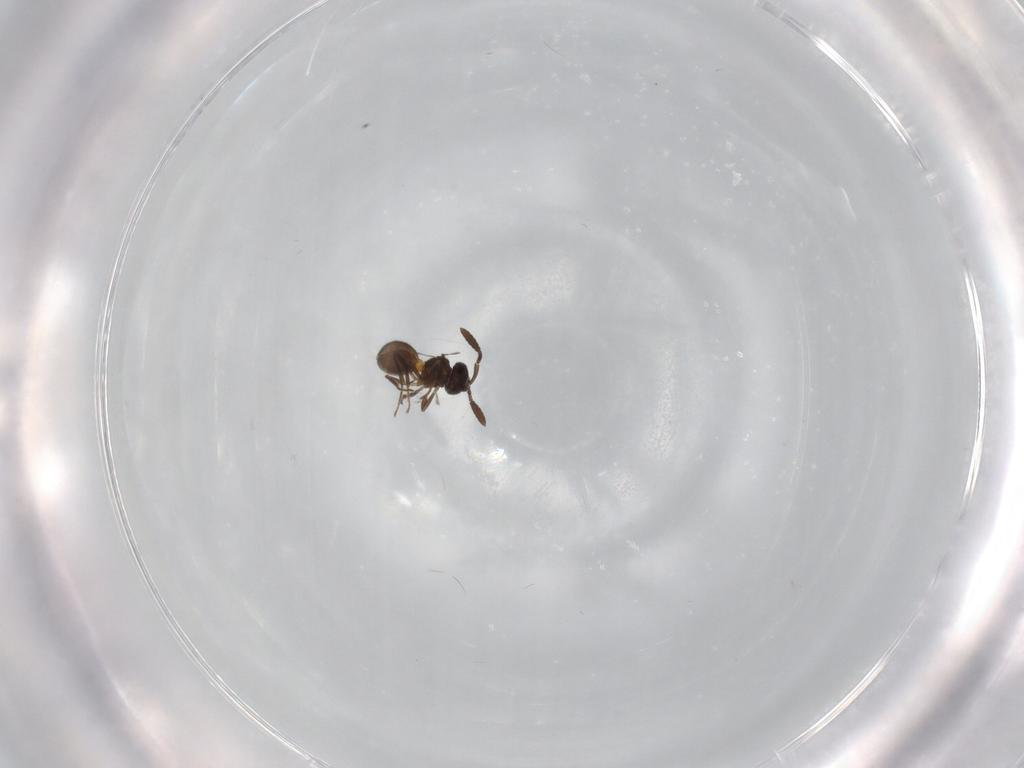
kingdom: Animalia
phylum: Arthropoda
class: Insecta
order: Hymenoptera
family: Scelionidae
